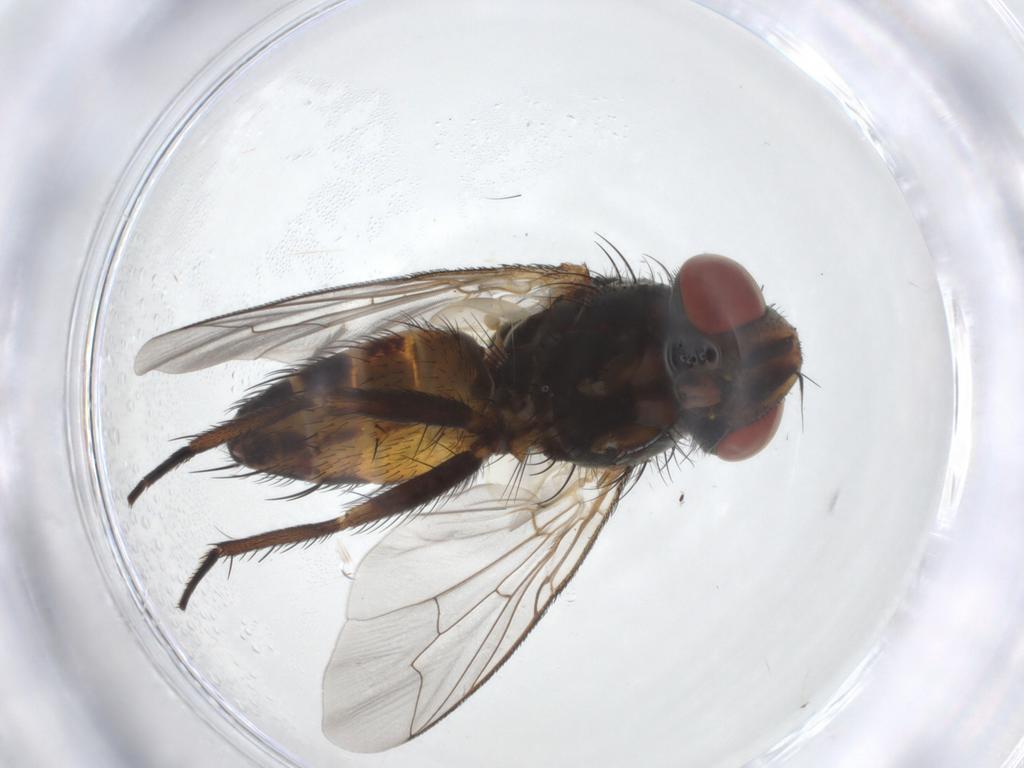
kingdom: Animalia
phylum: Arthropoda
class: Insecta
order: Diptera
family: Sarcophagidae
